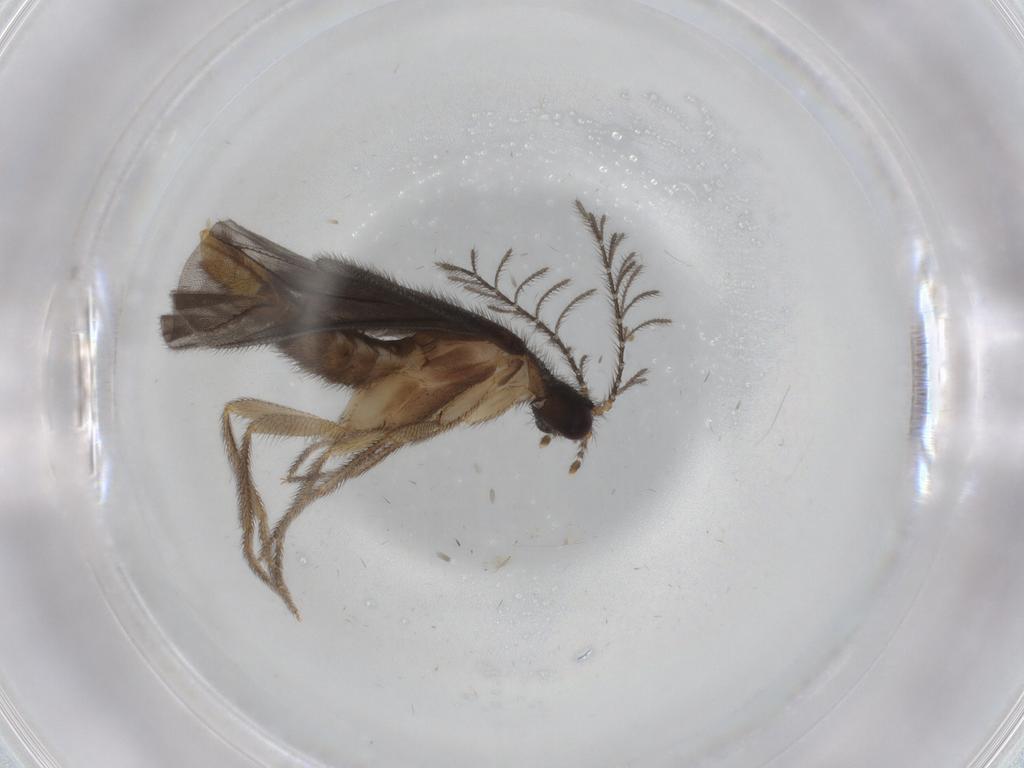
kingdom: Animalia
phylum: Arthropoda
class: Insecta
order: Coleoptera
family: Phengodidae
